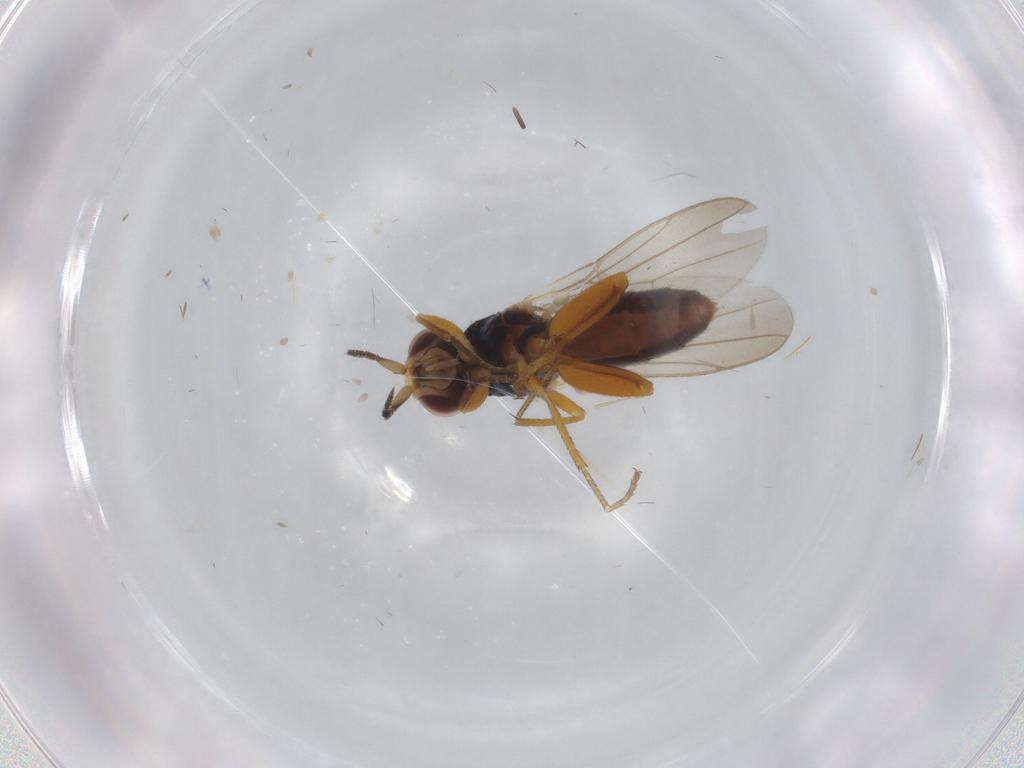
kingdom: Animalia
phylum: Arthropoda
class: Insecta
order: Diptera
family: Chloropidae
